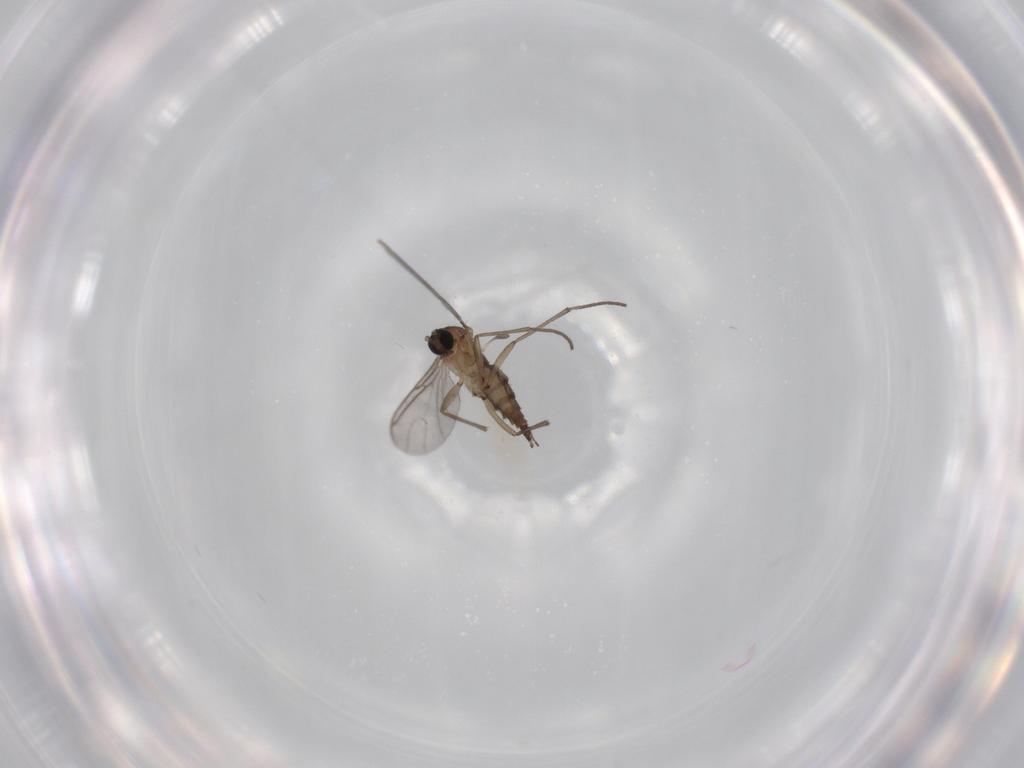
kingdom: Animalia
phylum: Arthropoda
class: Insecta
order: Diptera
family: Sciaridae
